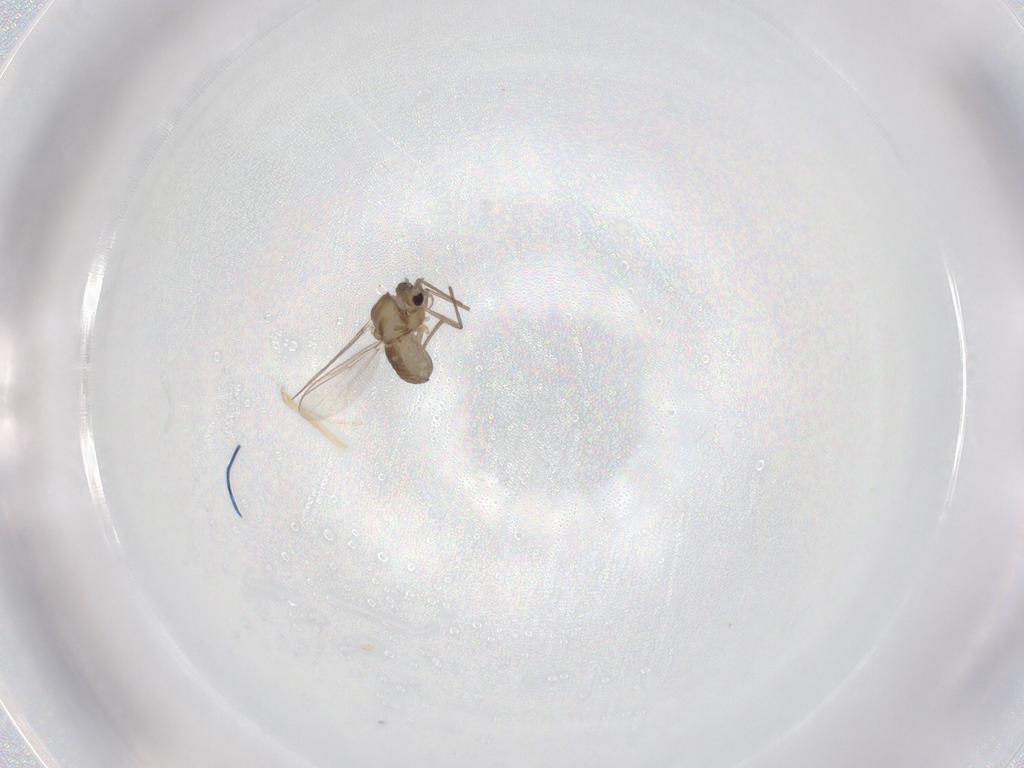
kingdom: Animalia
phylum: Arthropoda
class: Insecta
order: Diptera
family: Chironomidae
